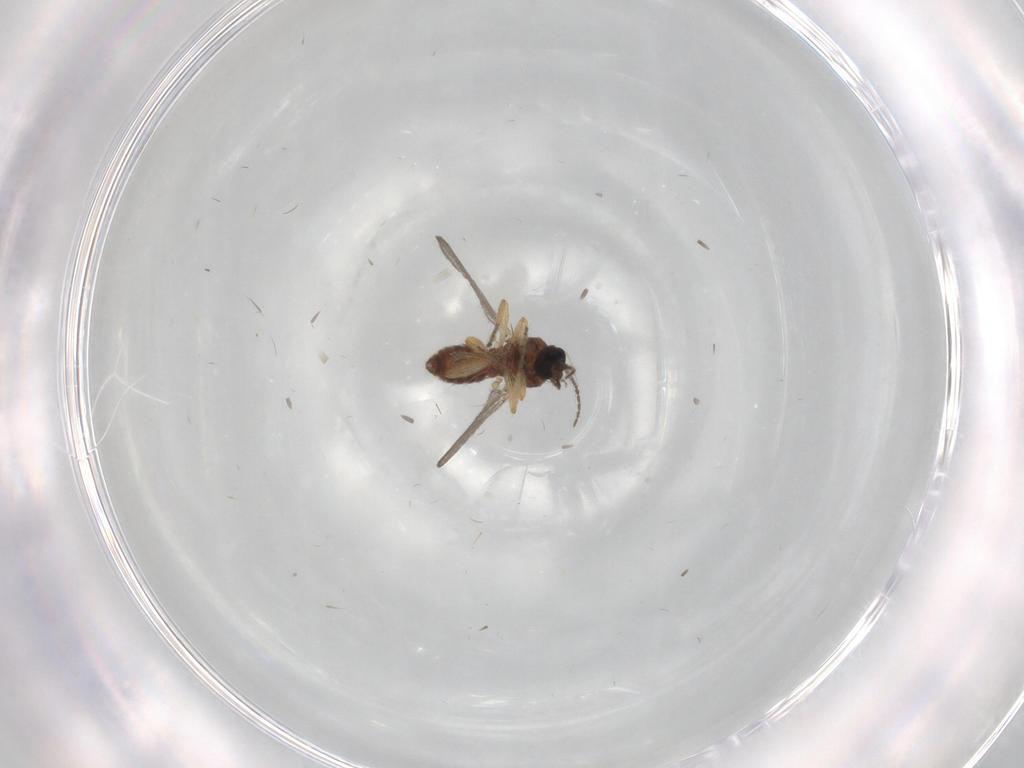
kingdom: Animalia
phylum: Arthropoda
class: Insecta
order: Diptera
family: Ceratopogonidae
